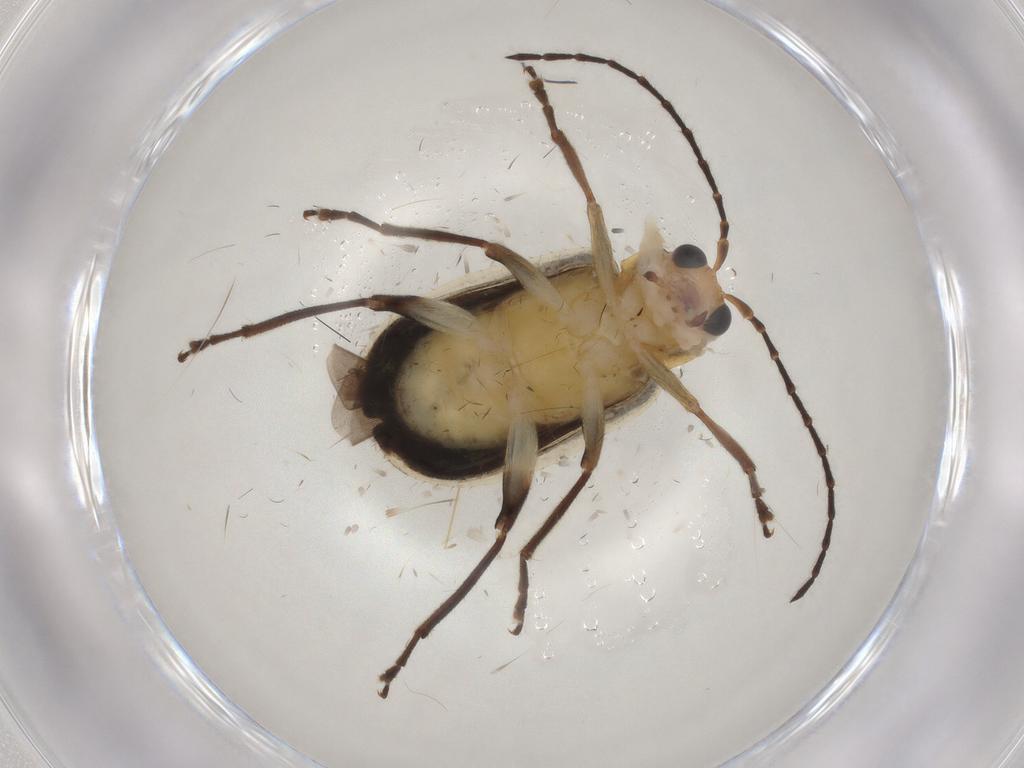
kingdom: Animalia
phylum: Arthropoda
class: Insecta
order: Coleoptera
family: Chrysomelidae
